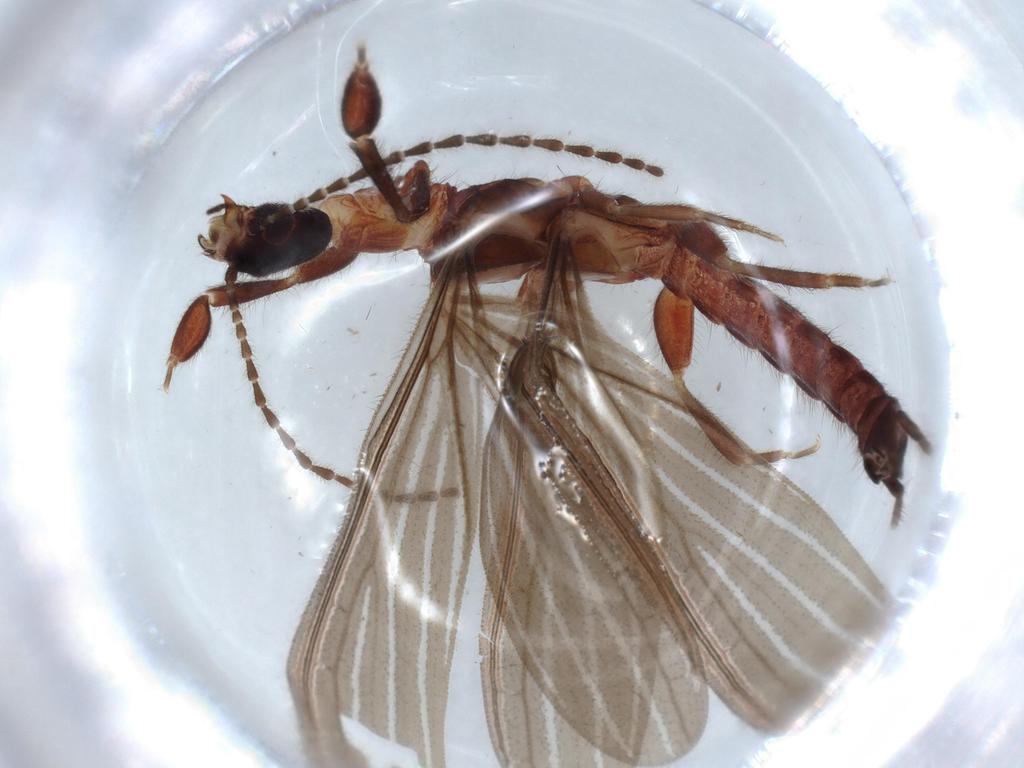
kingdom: Animalia
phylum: Arthropoda
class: Insecta
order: Embioptera
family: Anisembiidae
